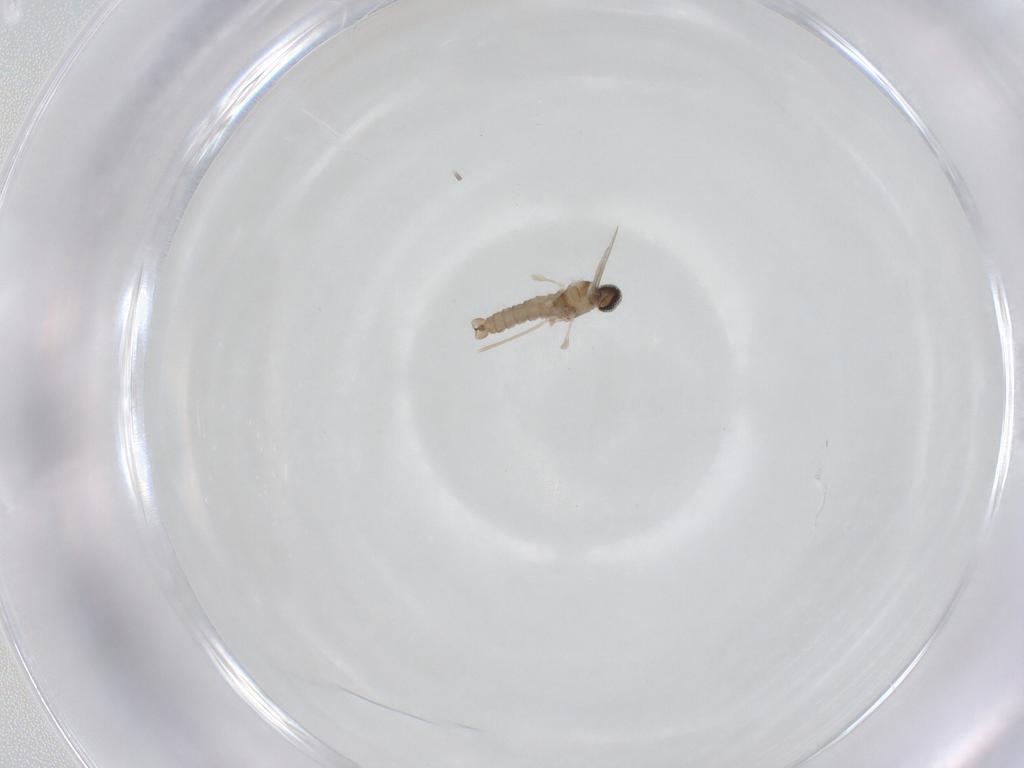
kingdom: Animalia
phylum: Arthropoda
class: Insecta
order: Diptera
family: Cecidomyiidae
